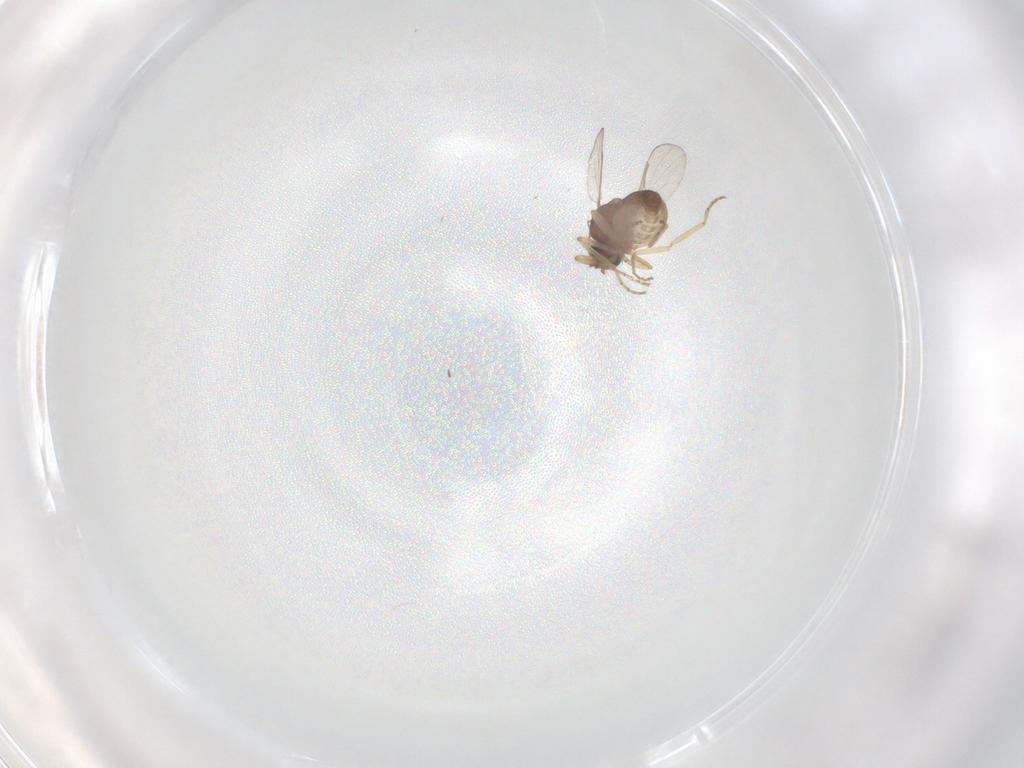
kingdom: Animalia
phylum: Arthropoda
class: Insecta
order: Diptera
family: Ceratopogonidae
